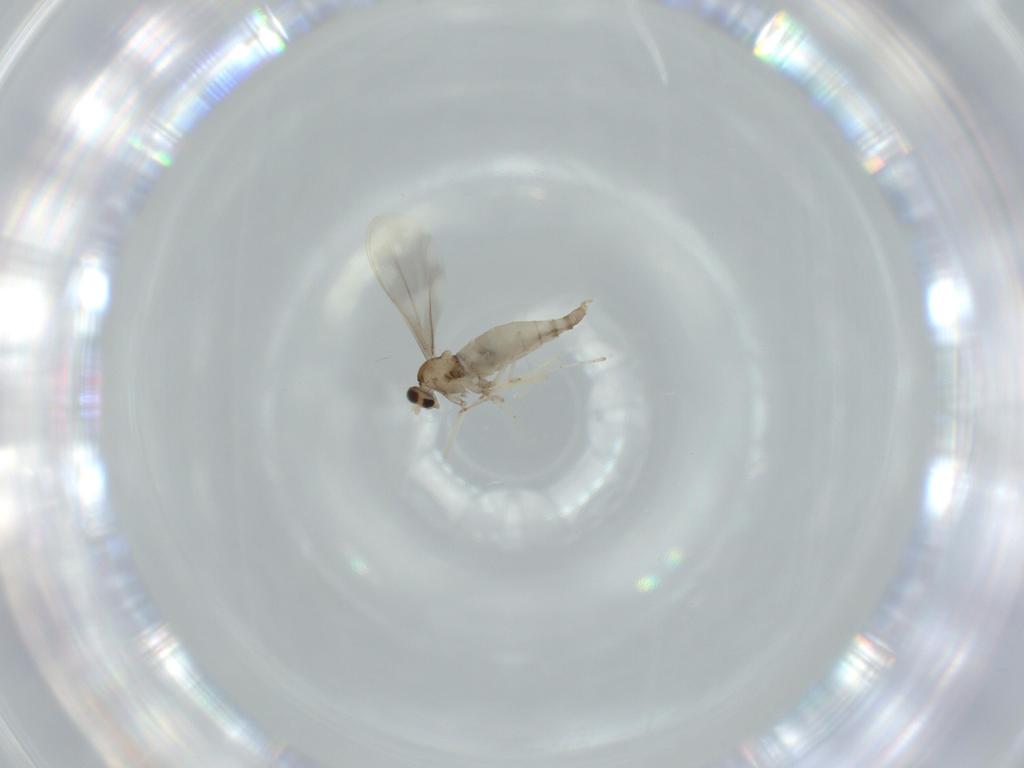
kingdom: Animalia
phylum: Arthropoda
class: Insecta
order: Diptera
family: Cecidomyiidae
